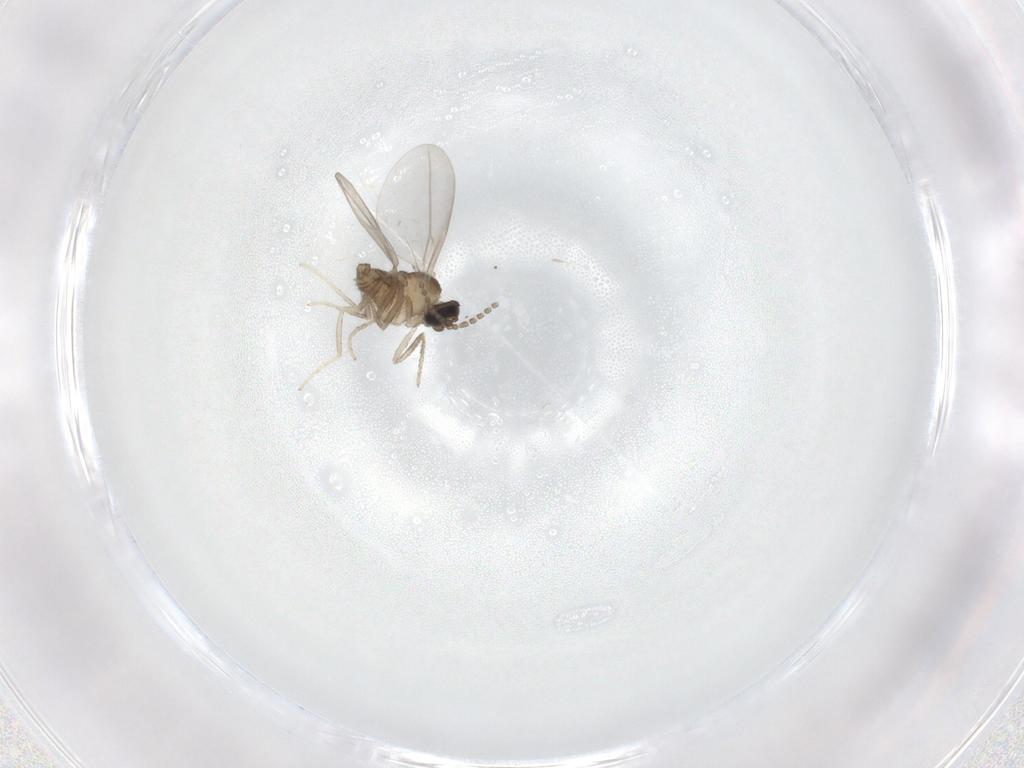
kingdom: Animalia
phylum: Arthropoda
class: Insecta
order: Diptera
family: Cecidomyiidae
